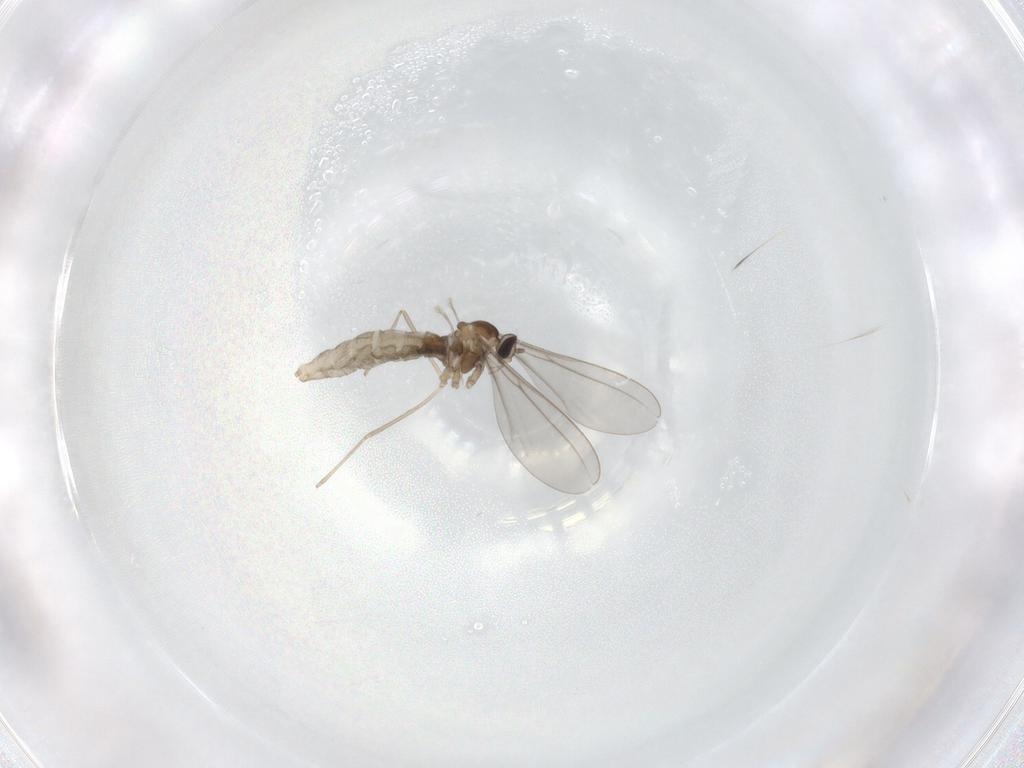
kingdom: Animalia
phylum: Arthropoda
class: Insecta
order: Diptera
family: Cecidomyiidae
